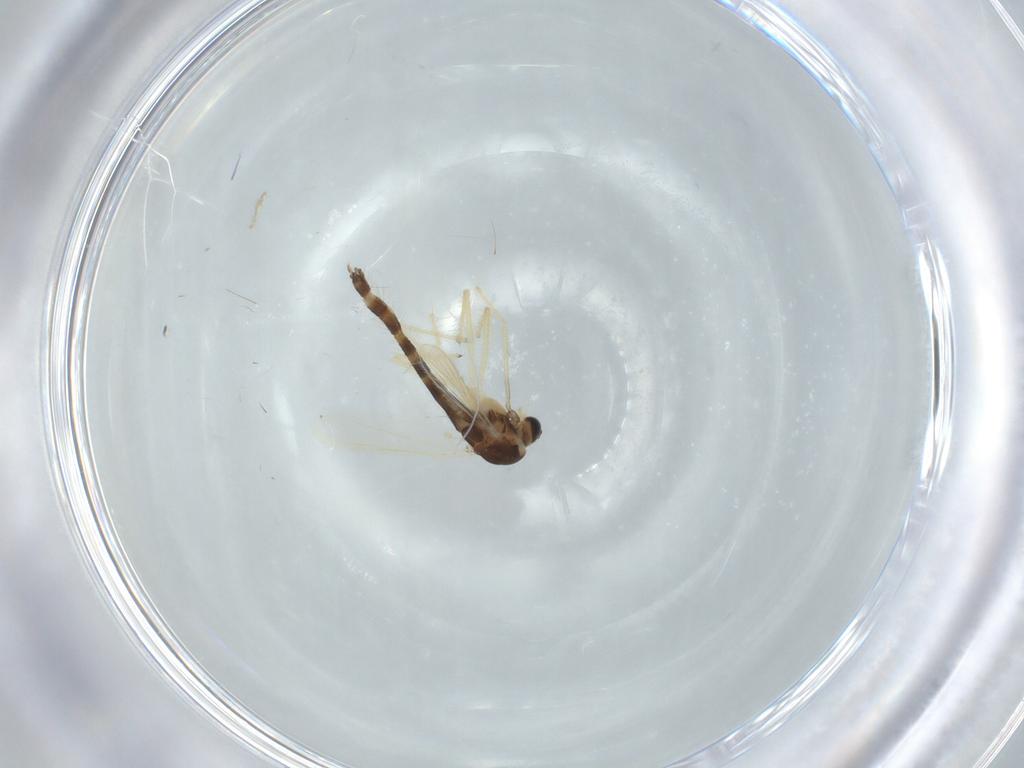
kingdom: Animalia
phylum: Arthropoda
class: Insecta
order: Diptera
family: Chironomidae
